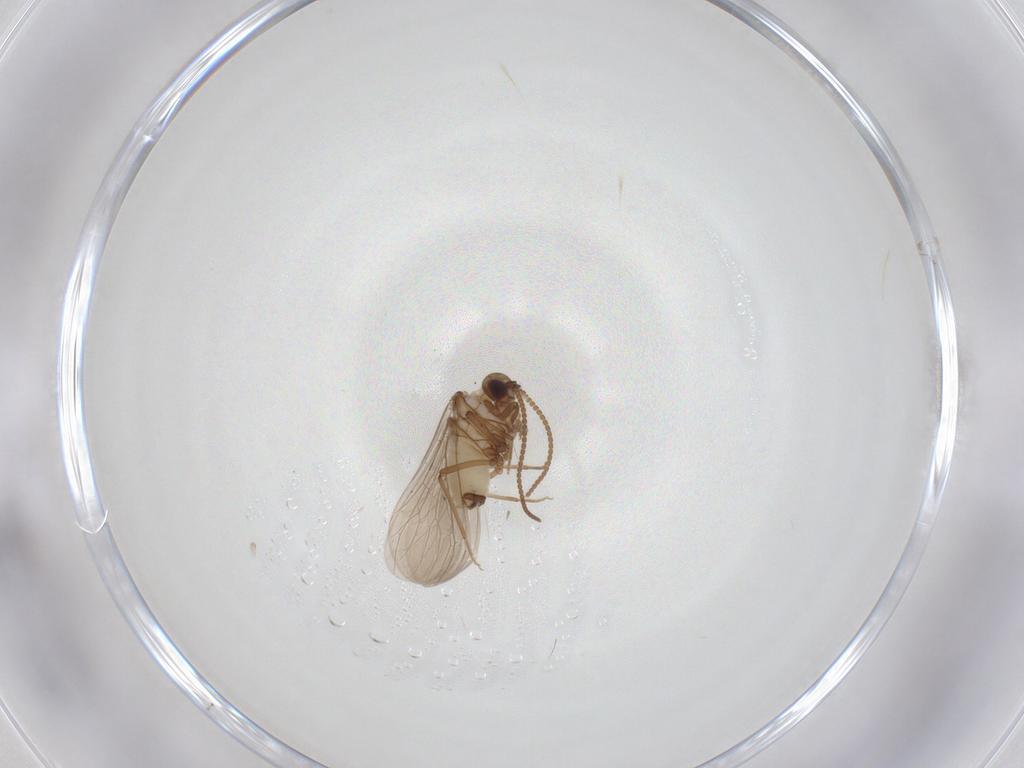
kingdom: Animalia
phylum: Arthropoda
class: Insecta
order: Neuroptera
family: Coniopterygidae
